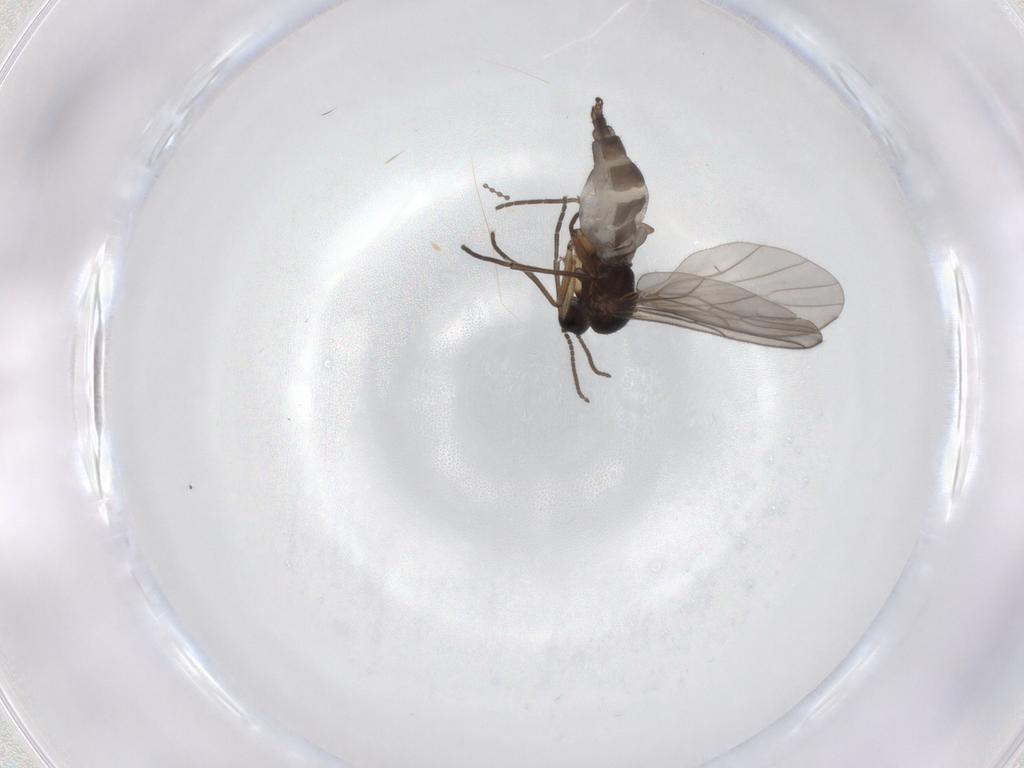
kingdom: Animalia
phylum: Arthropoda
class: Insecta
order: Diptera
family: Sciaridae
